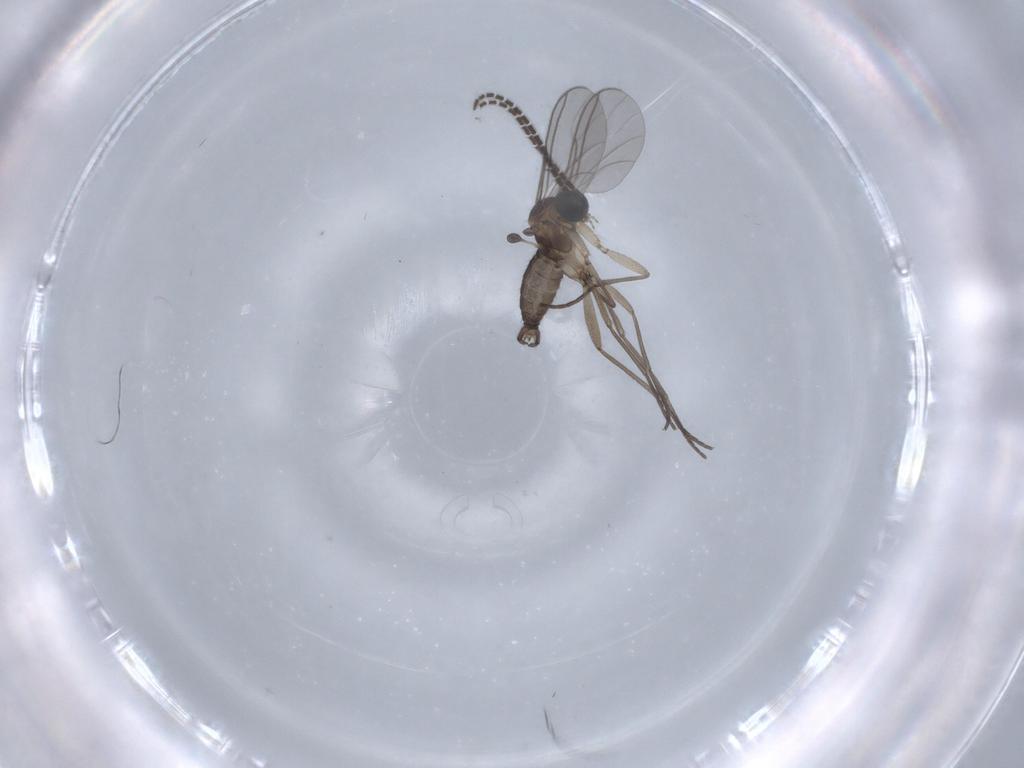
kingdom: Animalia
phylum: Arthropoda
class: Insecta
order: Diptera
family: Sciaridae
